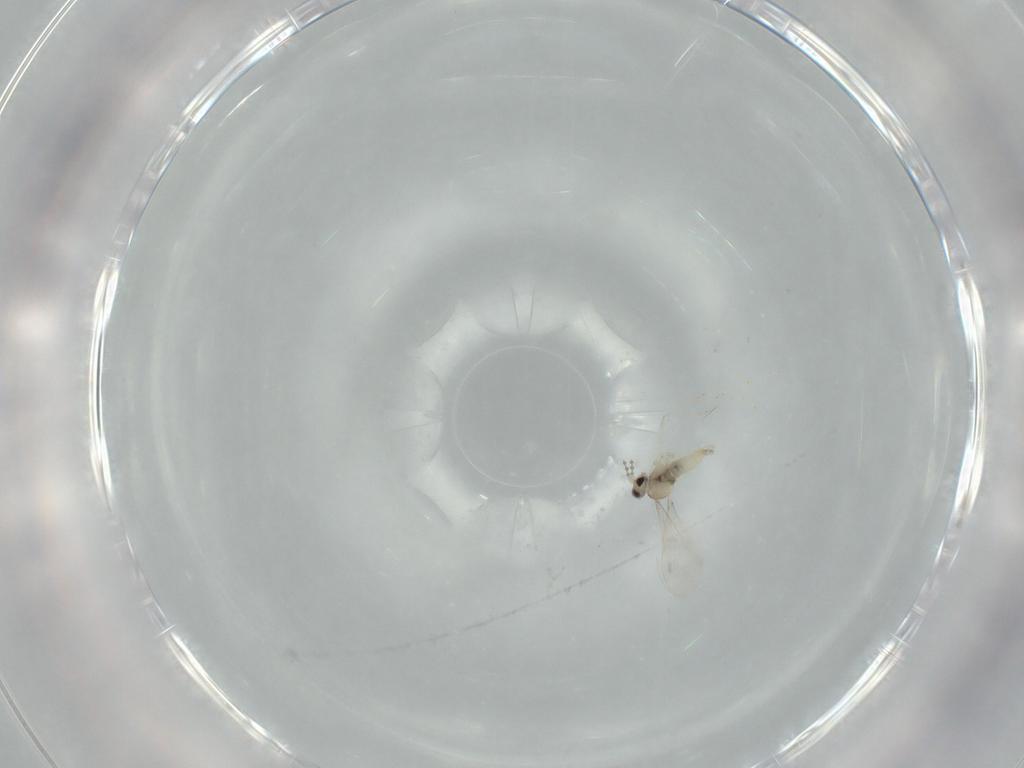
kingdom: Animalia
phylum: Arthropoda
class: Insecta
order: Diptera
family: Cecidomyiidae
